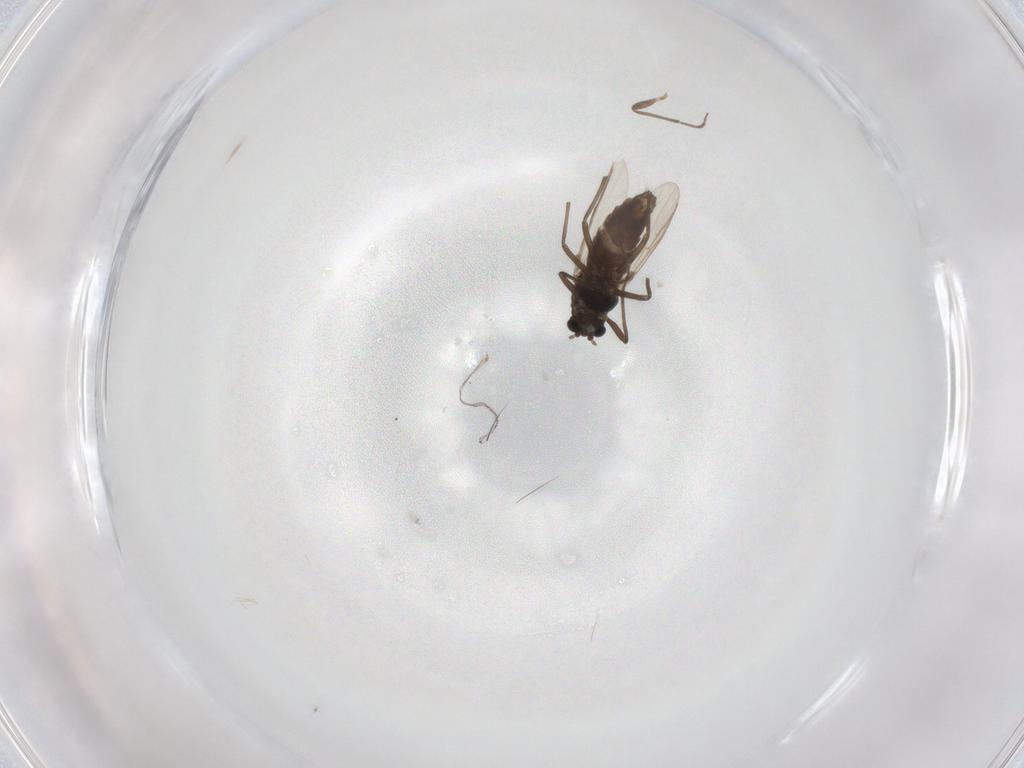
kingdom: Animalia
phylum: Arthropoda
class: Insecta
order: Diptera
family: Chironomidae
